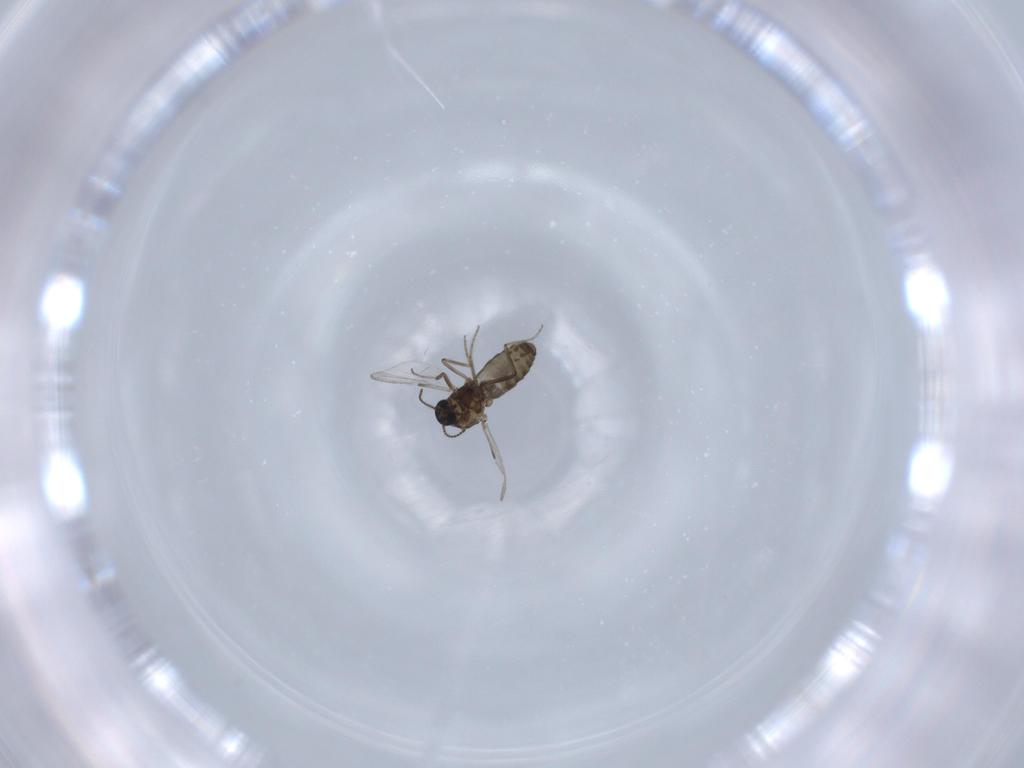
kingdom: Animalia
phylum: Arthropoda
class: Insecta
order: Diptera
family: Ceratopogonidae
